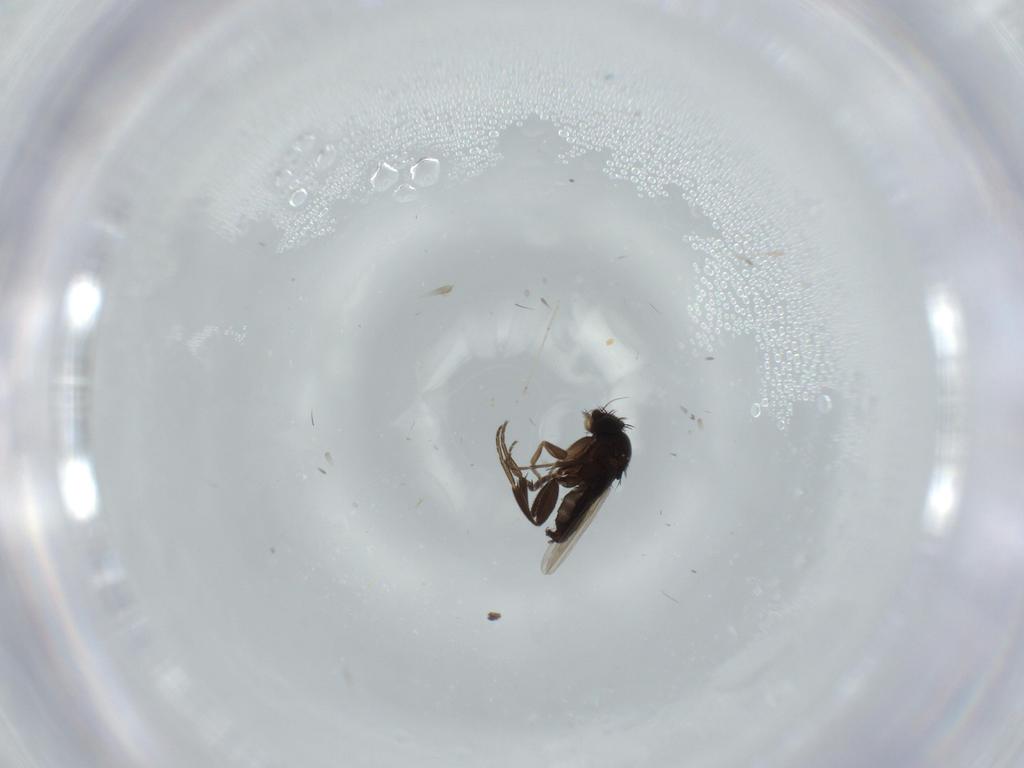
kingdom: Animalia
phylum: Arthropoda
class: Insecta
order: Diptera
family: Phoridae
